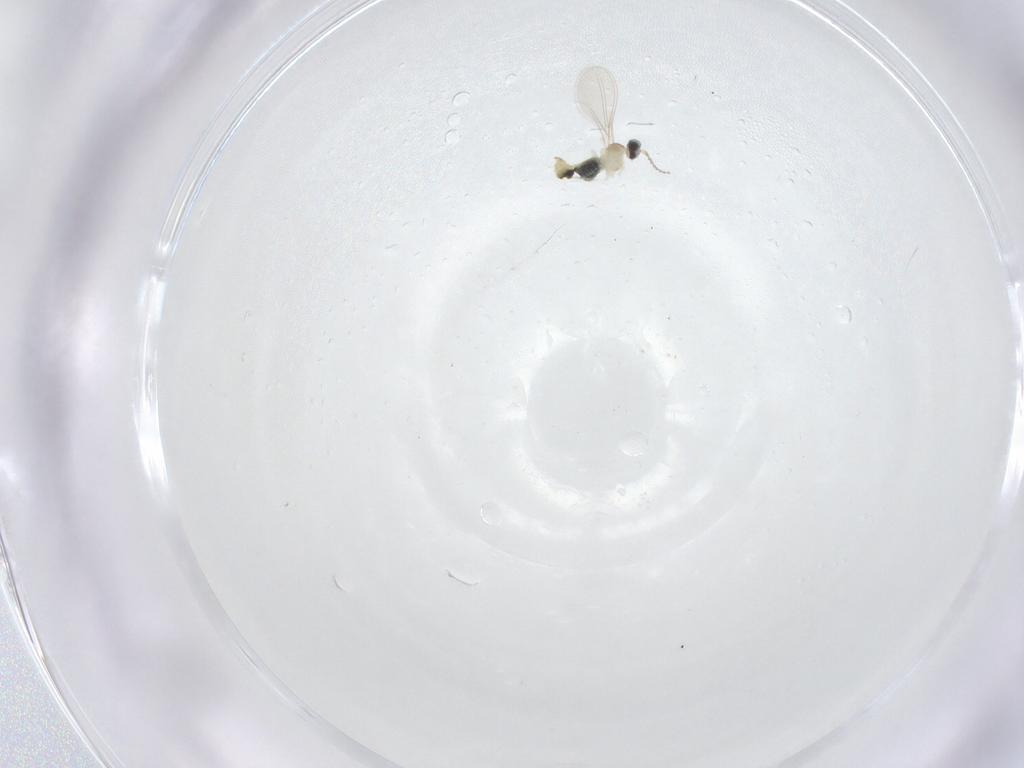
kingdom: Animalia
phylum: Arthropoda
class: Insecta
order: Diptera
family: Cecidomyiidae
